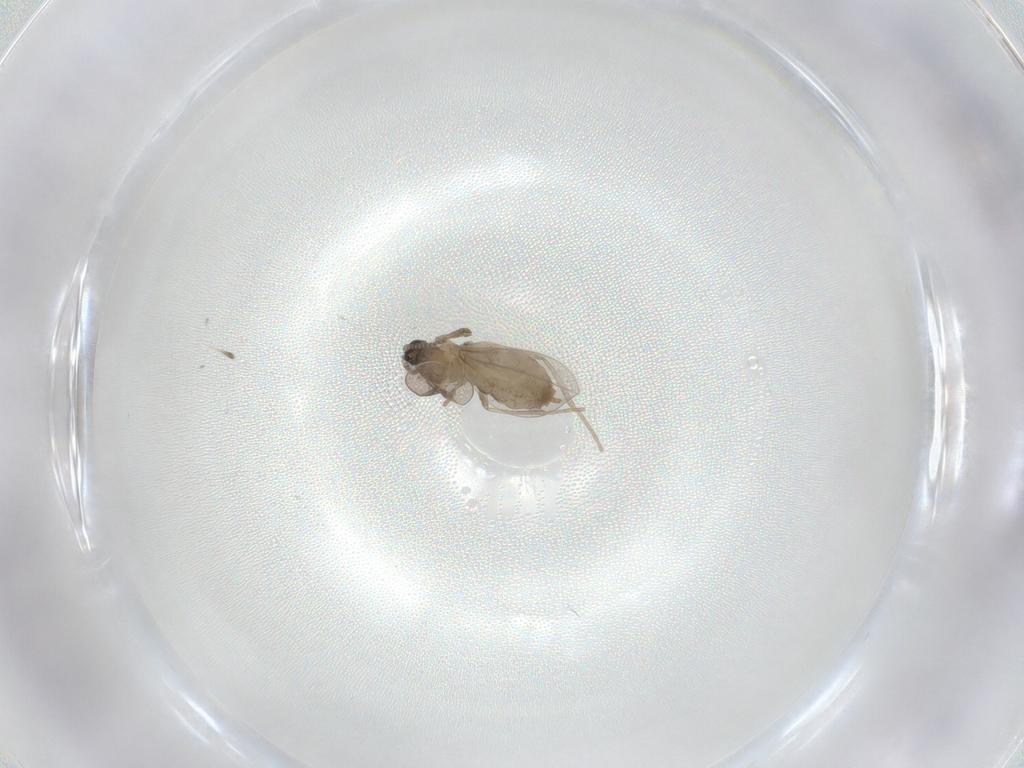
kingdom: Animalia
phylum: Arthropoda
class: Insecta
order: Diptera
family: Cecidomyiidae
